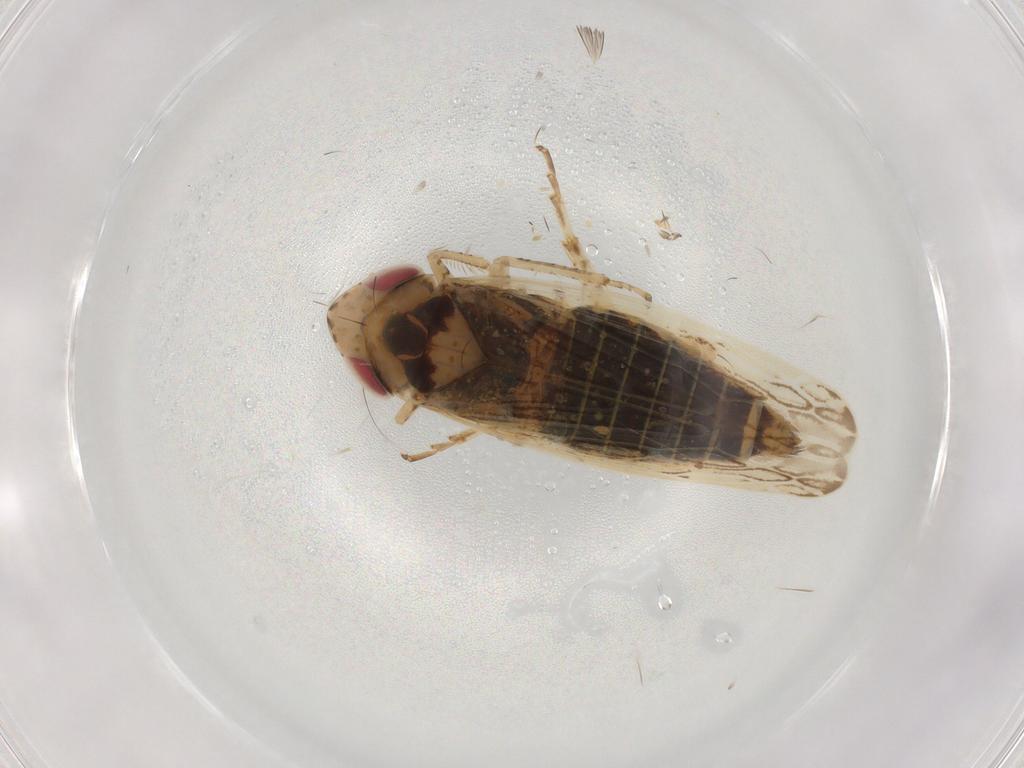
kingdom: Animalia
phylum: Arthropoda
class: Insecta
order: Hemiptera
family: Cicadellidae
